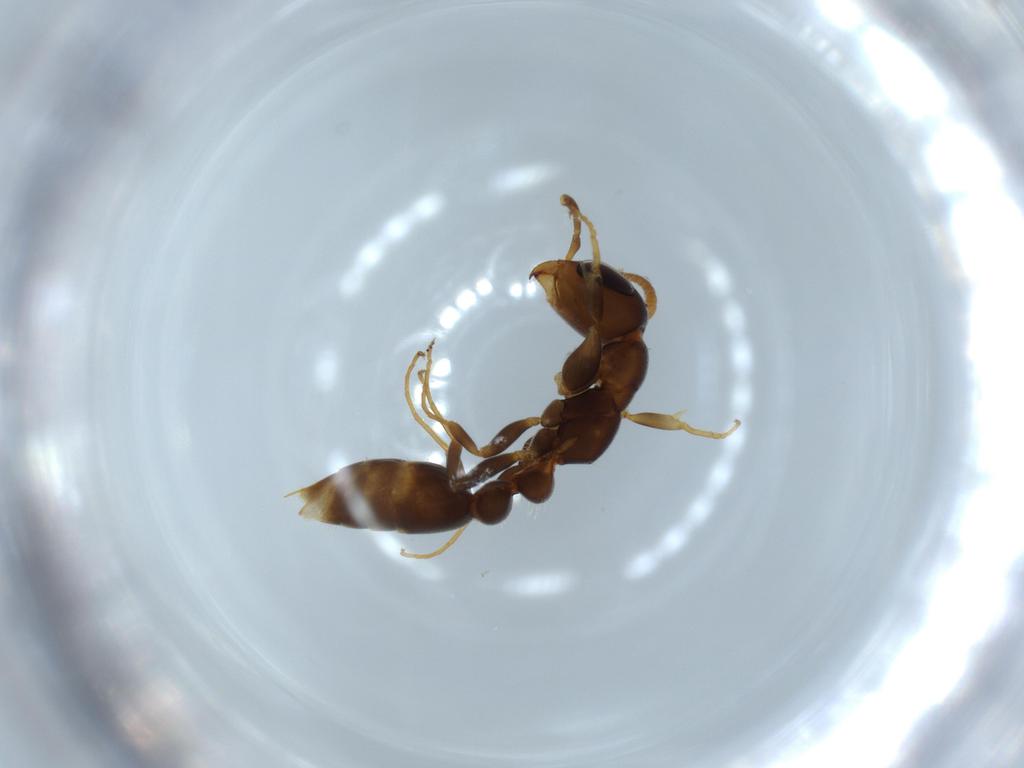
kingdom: Animalia
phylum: Arthropoda
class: Insecta
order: Hymenoptera
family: Formicidae
